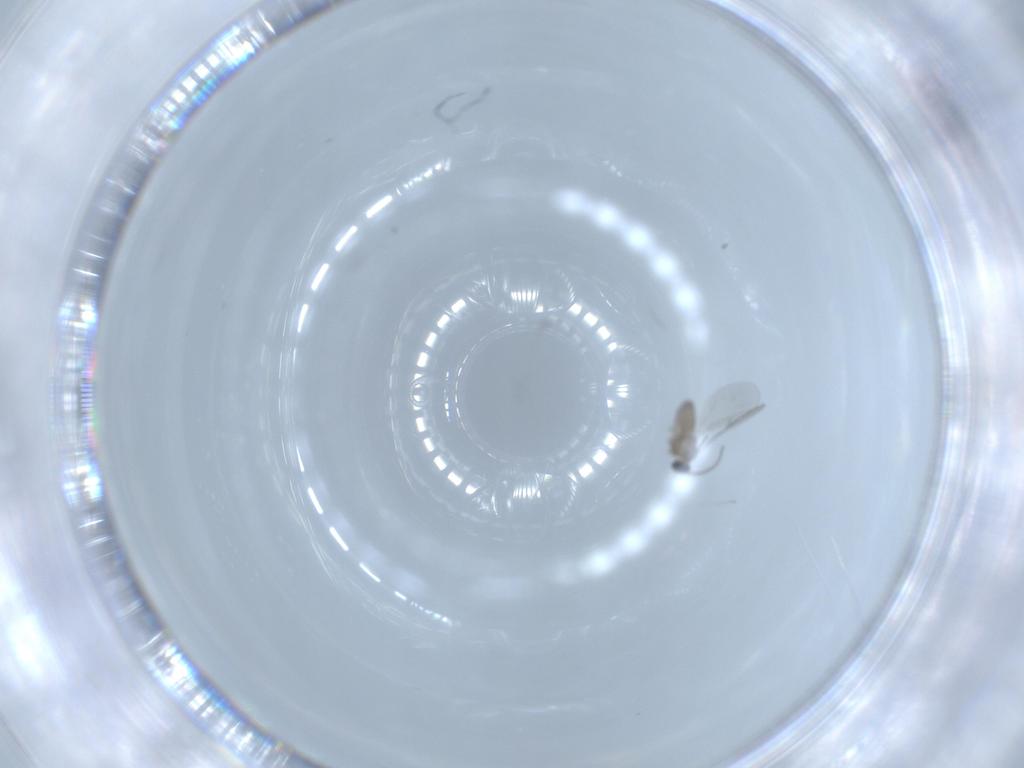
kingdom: Animalia
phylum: Arthropoda
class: Insecta
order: Diptera
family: Cecidomyiidae
